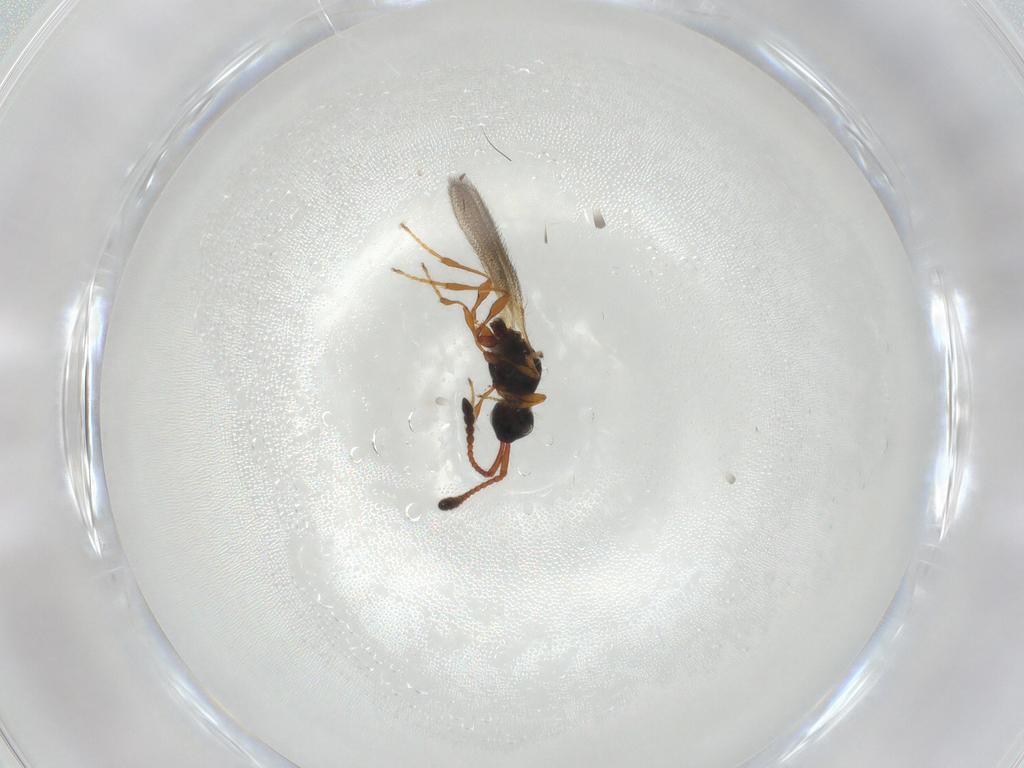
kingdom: Animalia
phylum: Arthropoda
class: Insecta
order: Hymenoptera
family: Diapriidae
